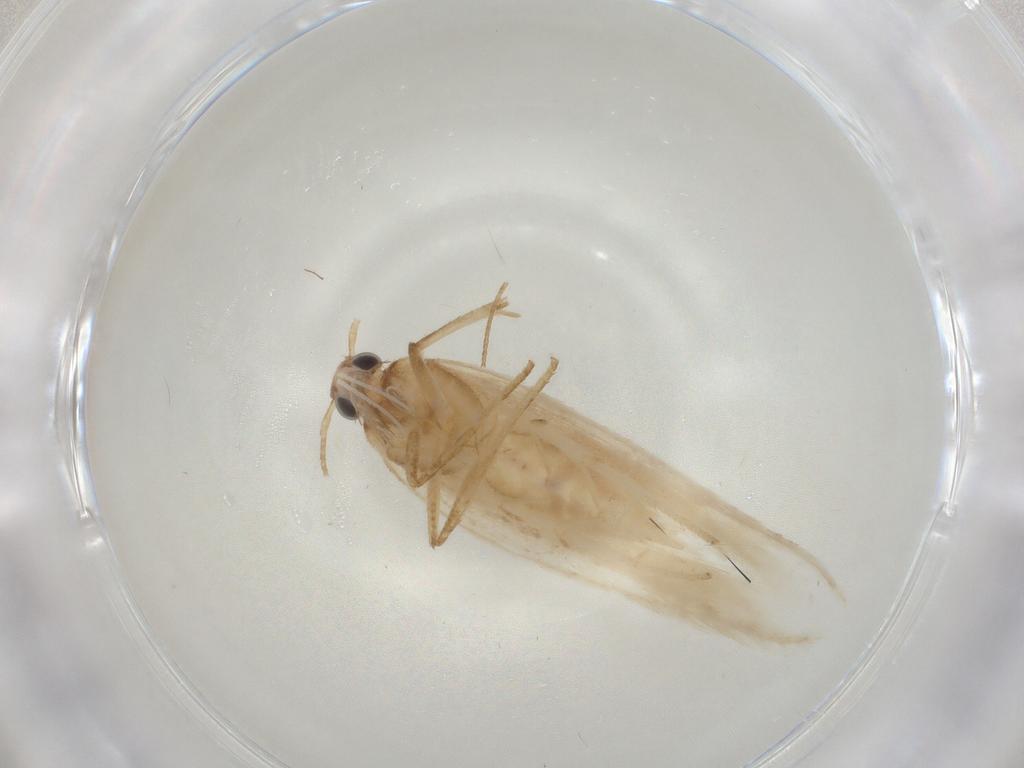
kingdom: Animalia
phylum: Arthropoda
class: Insecta
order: Lepidoptera
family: Gelechiidae
